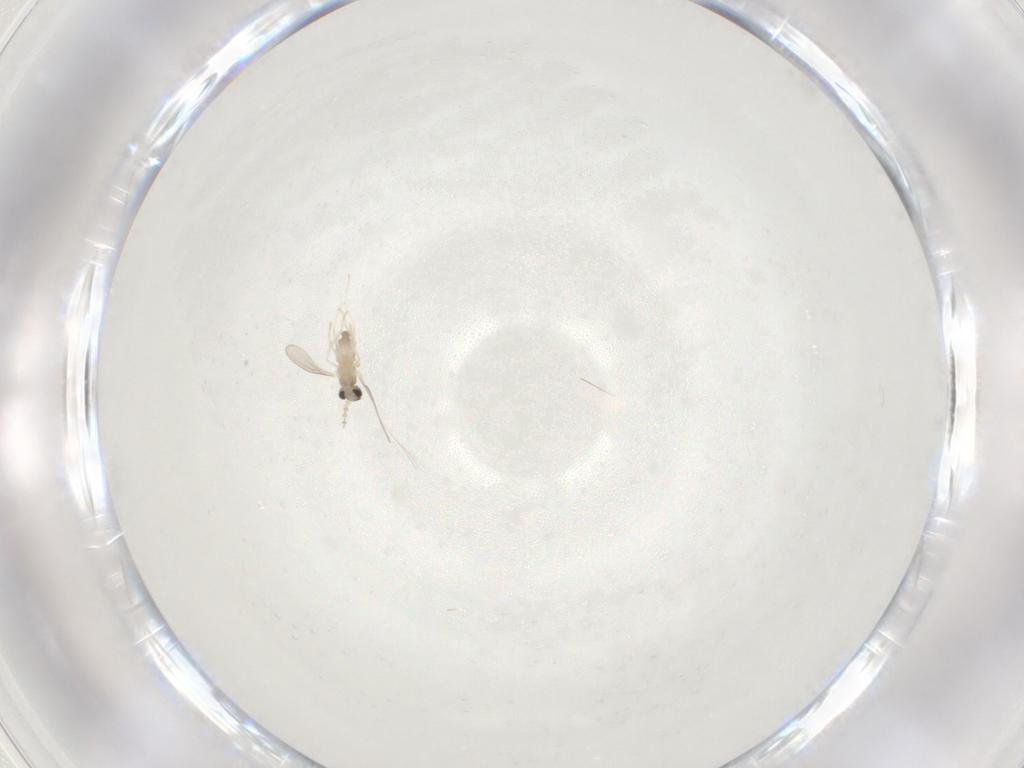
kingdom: Animalia
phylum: Arthropoda
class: Insecta
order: Diptera
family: Cecidomyiidae
